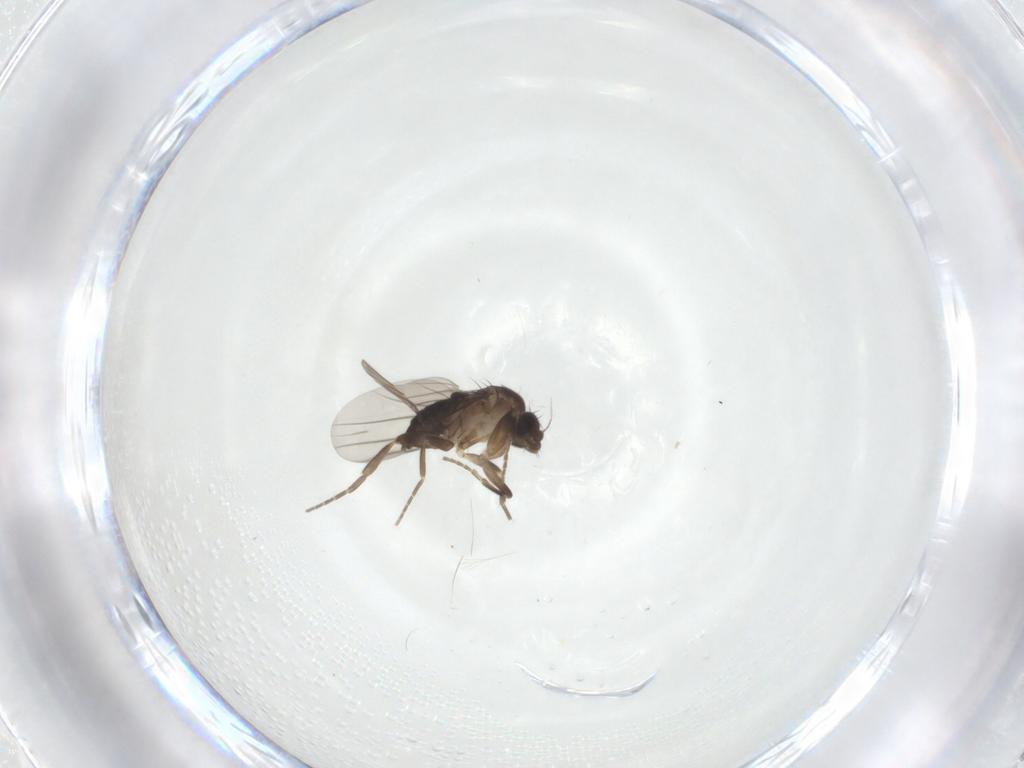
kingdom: Animalia
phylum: Arthropoda
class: Insecta
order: Diptera
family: Phoridae
